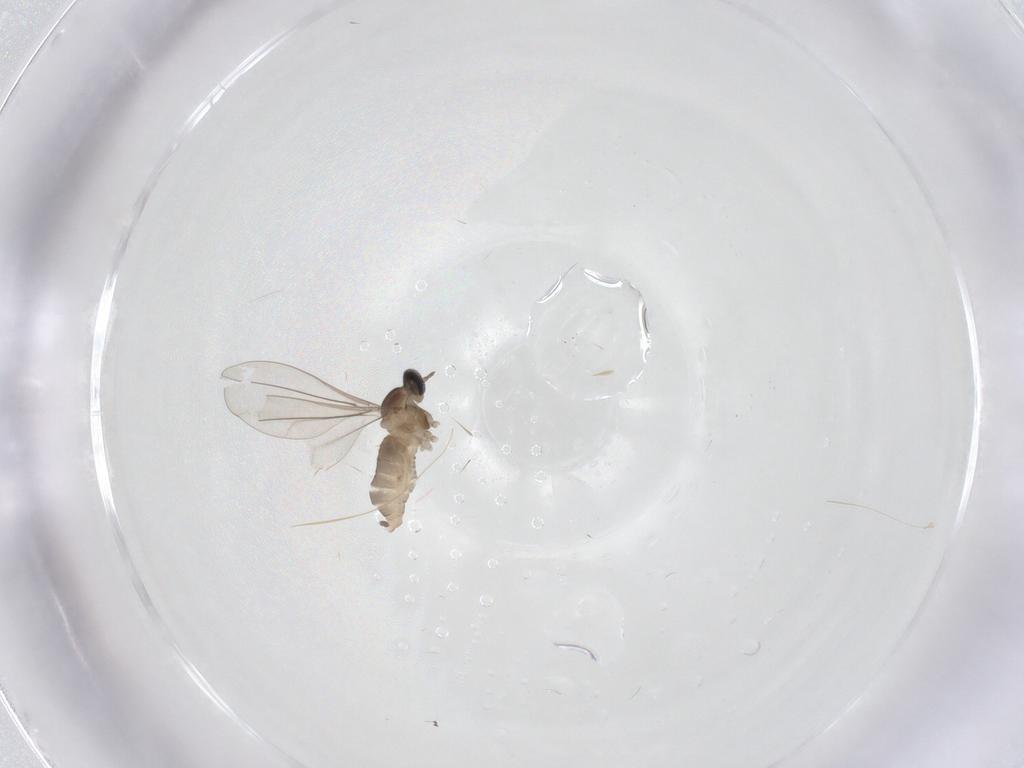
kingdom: Animalia
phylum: Arthropoda
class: Insecta
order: Diptera
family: Cecidomyiidae
